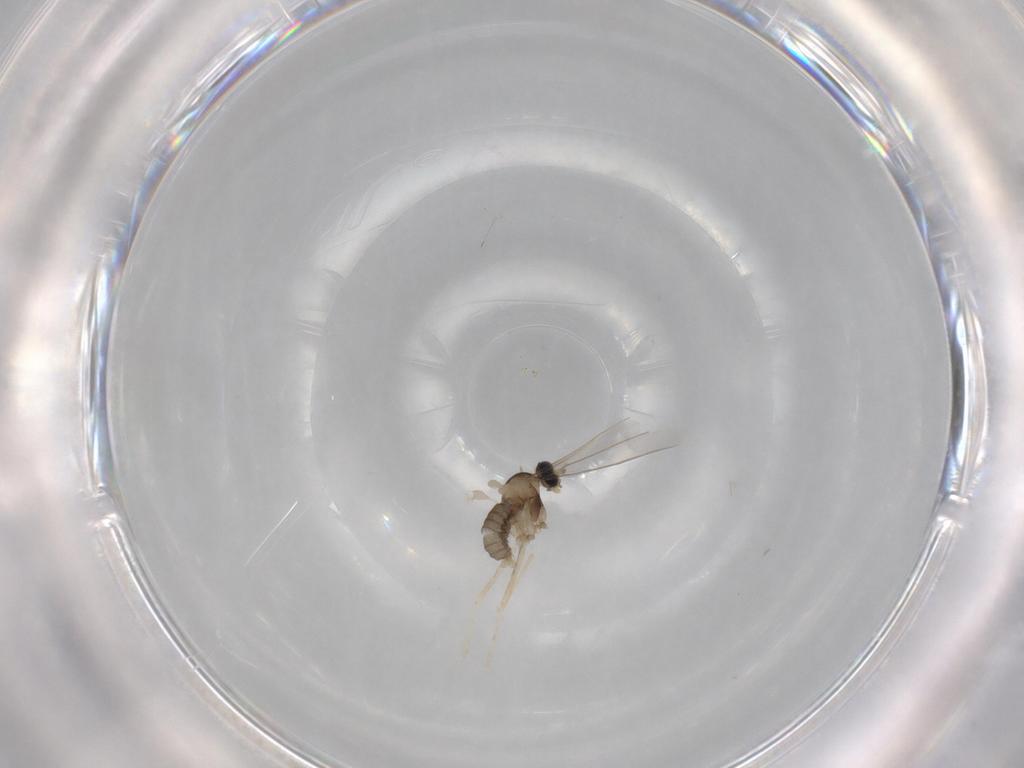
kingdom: Animalia
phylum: Arthropoda
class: Insecta
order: Diptera
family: Cecidomyiidae
